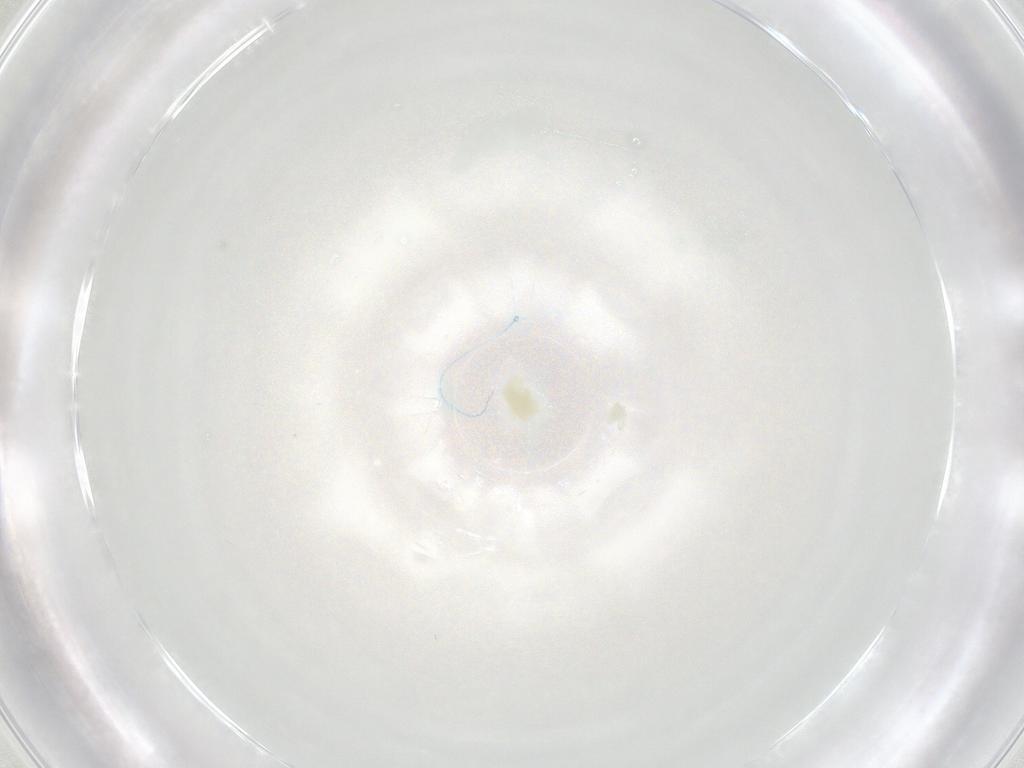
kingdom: Animalia
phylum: Arthropoda
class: Arachnida
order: Trombidiformes
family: Eupodidae
